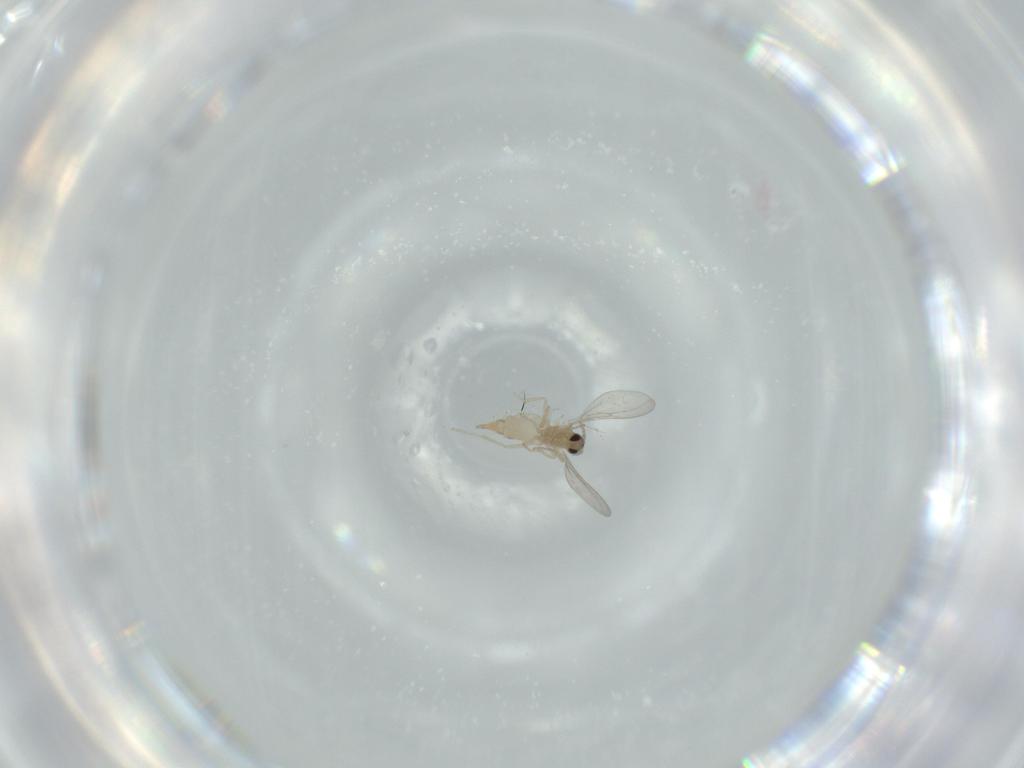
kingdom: Animalia
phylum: Arthropoda
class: Insecta
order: Diptera
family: Cecidomyiidae
